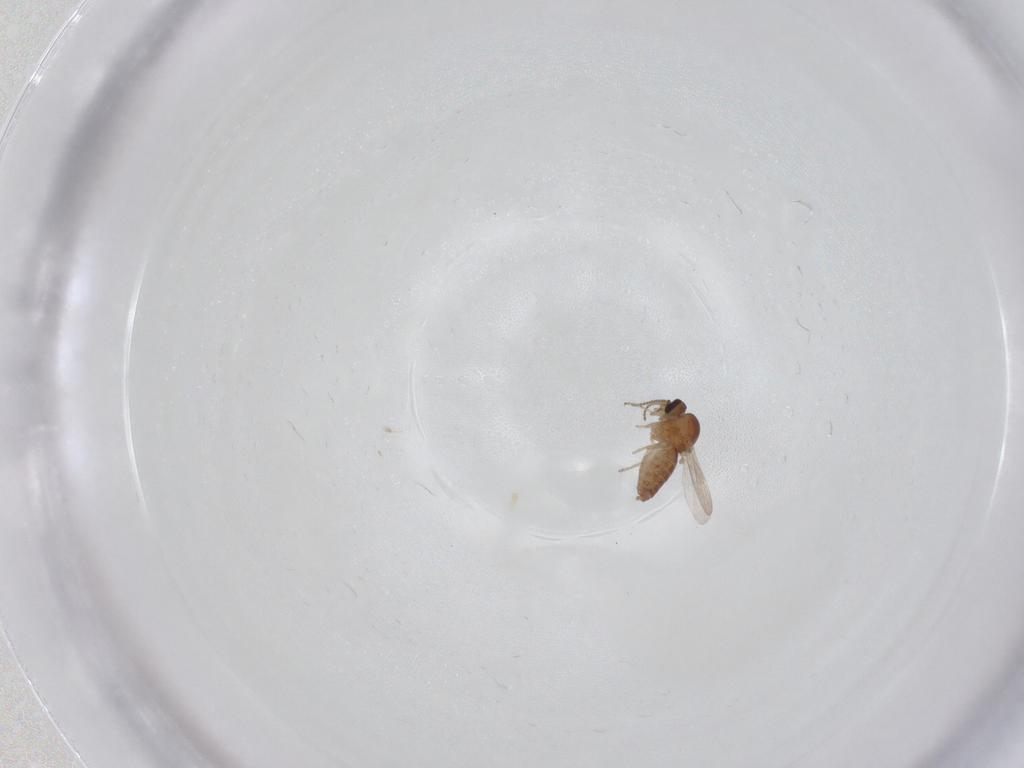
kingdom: Animalia
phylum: Arthropoda
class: Insecta
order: Diptera
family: Ceratopogonidae
